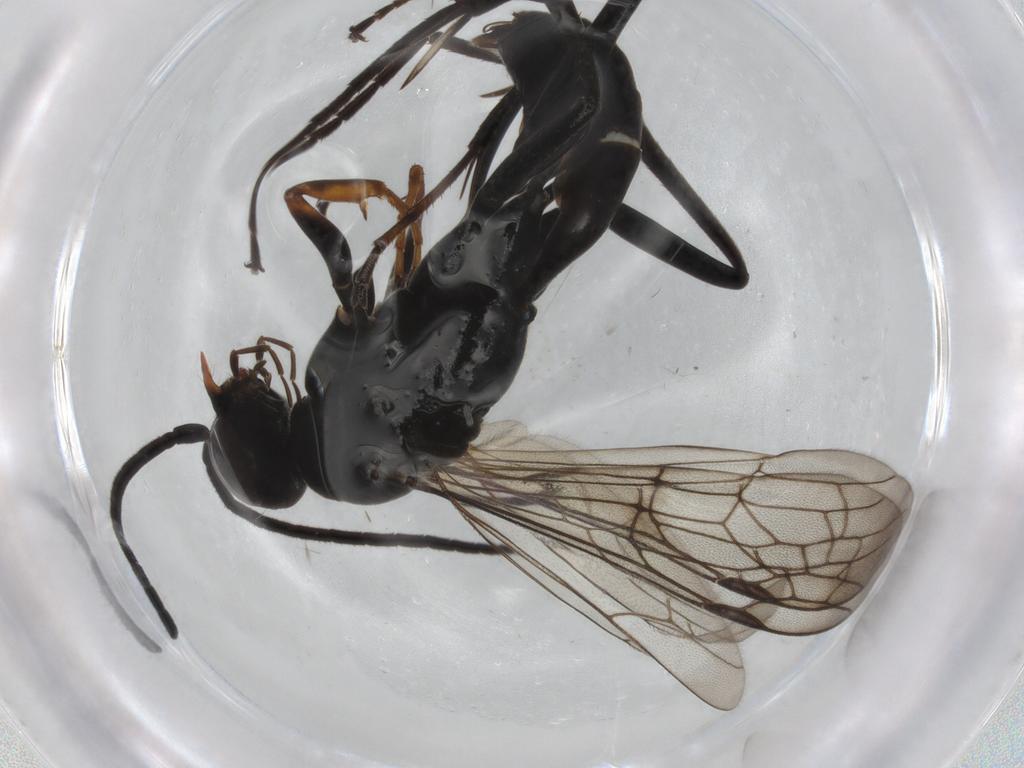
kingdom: Animalia
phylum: Arthropoda
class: Insecta
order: Hymenoptera
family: Pompilidae
